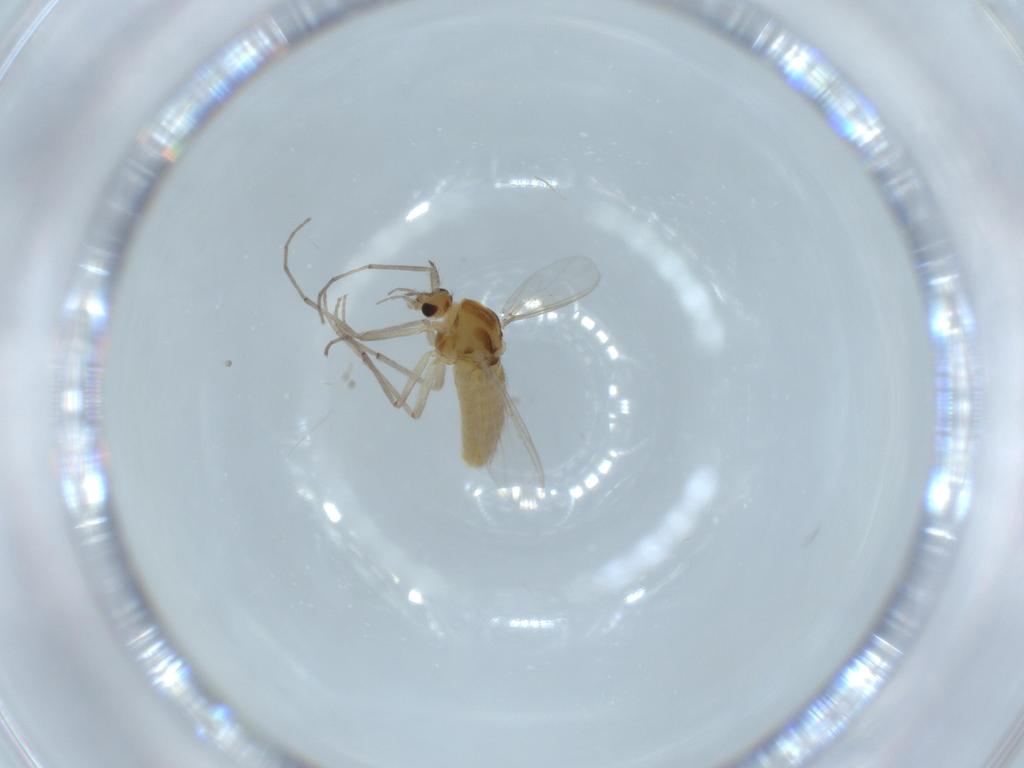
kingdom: Animalia
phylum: Arthropoda
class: Insecta
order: Diptera
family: Chironomidae
